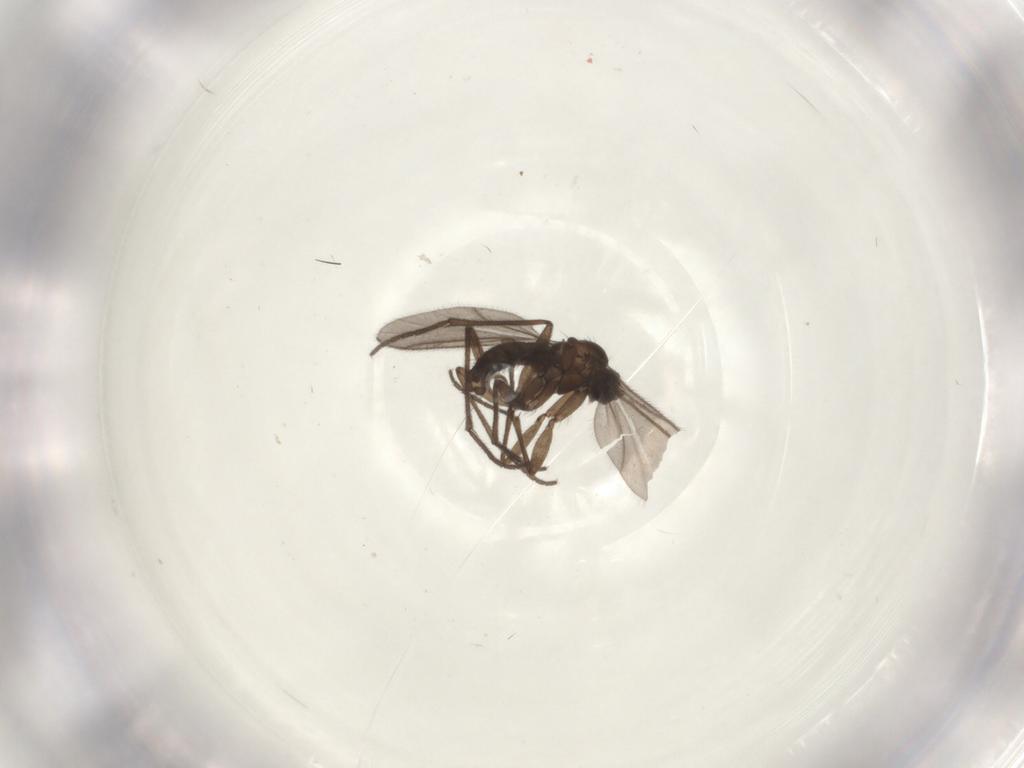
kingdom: Animalia
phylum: Arthropoda
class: Insecta
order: Diptera
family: Sciaridae
